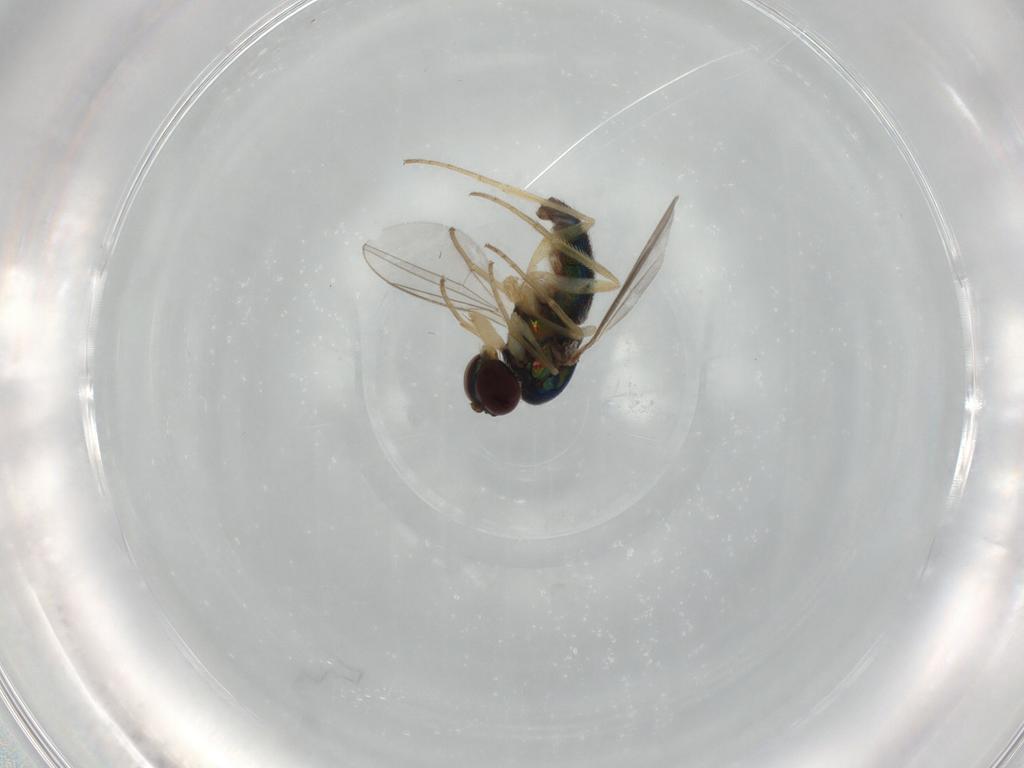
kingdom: Animalia
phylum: Arthropoda
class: Insecta
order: Diptera
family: Dolichopodidae
